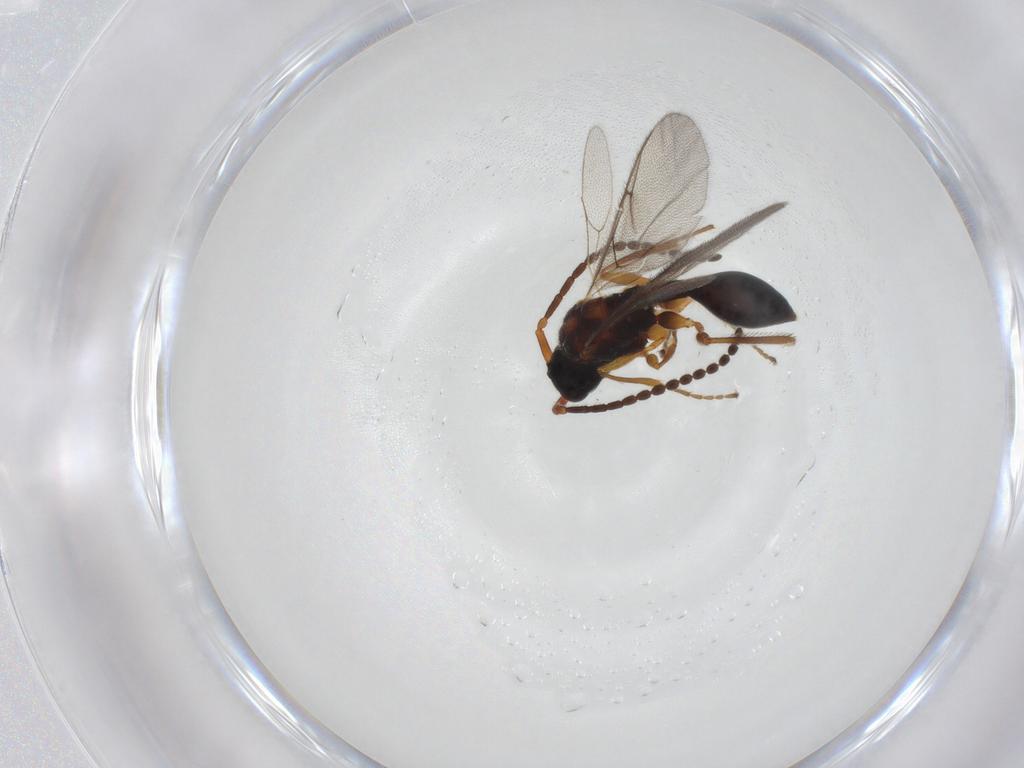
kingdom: Animalia
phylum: Arthropoda
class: Insecta
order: Hymenoptera
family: Diapriidae
